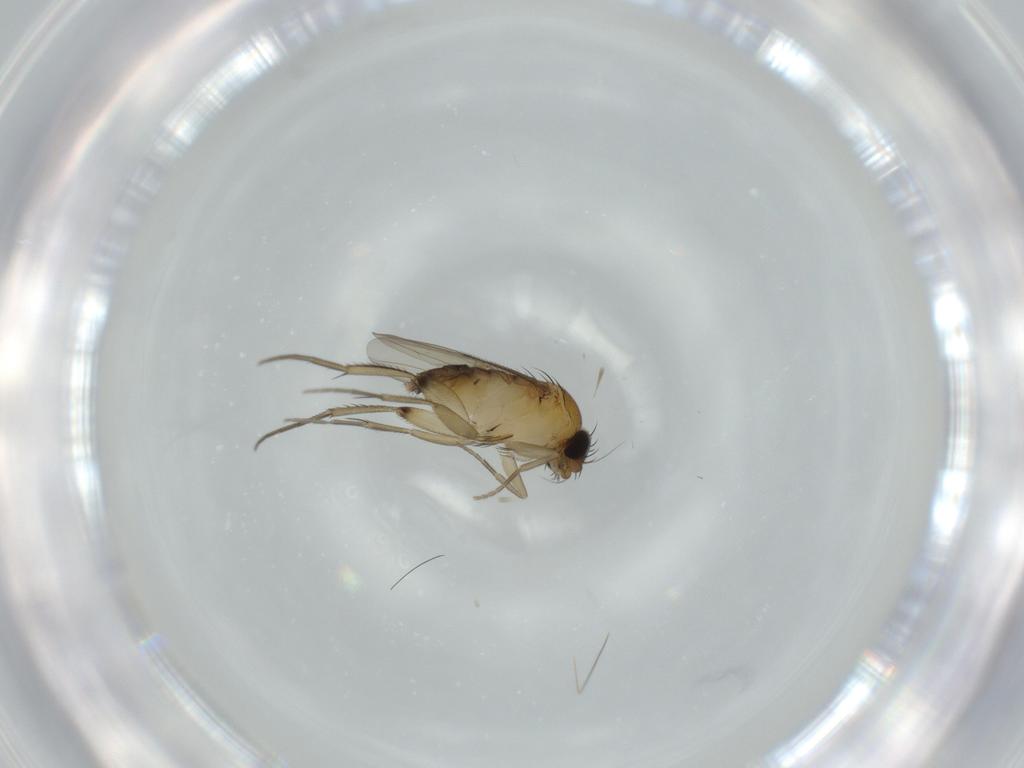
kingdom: Animalia
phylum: Arthropoda
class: Insecta
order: Diptera
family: Phoridae
